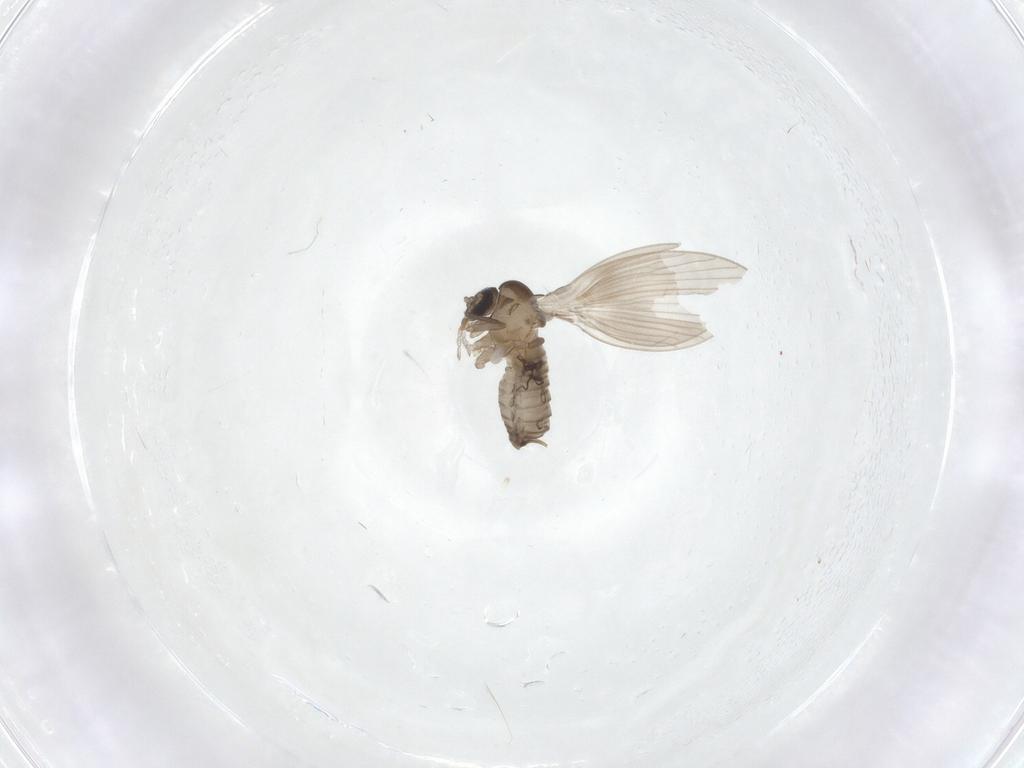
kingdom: Animalia
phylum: Arthropoda
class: Insecta
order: Diptera
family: Psychodidae
